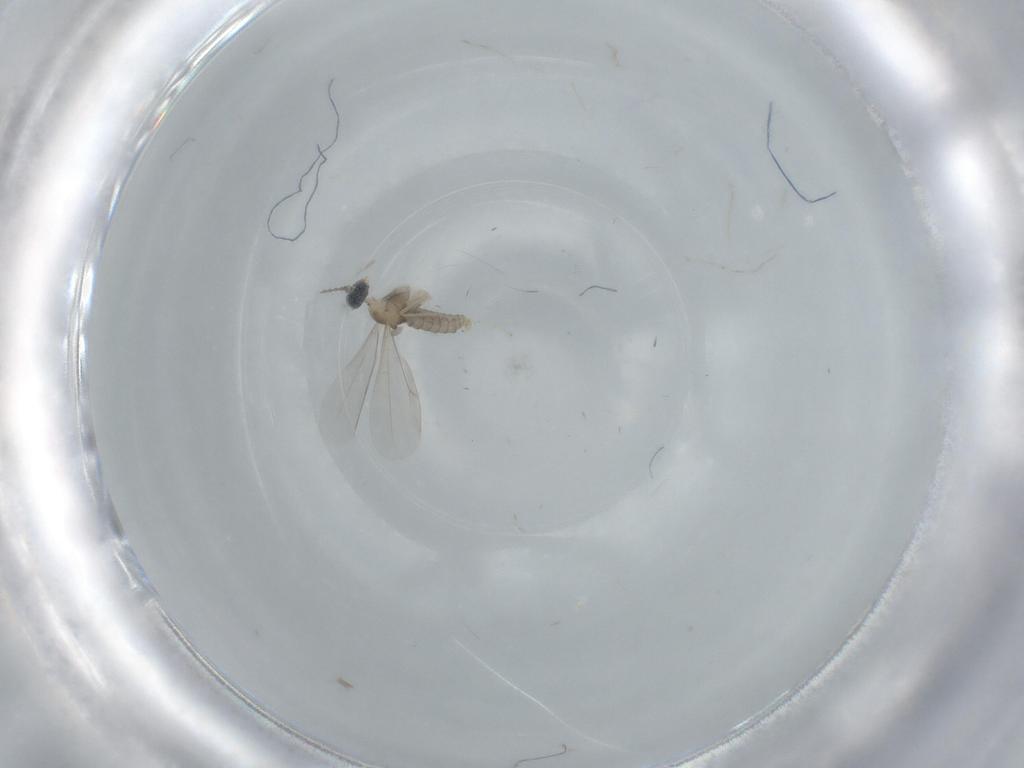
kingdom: Animalia
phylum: Arthropoda
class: Insecta
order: Diptera
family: Cecidomyiidae
